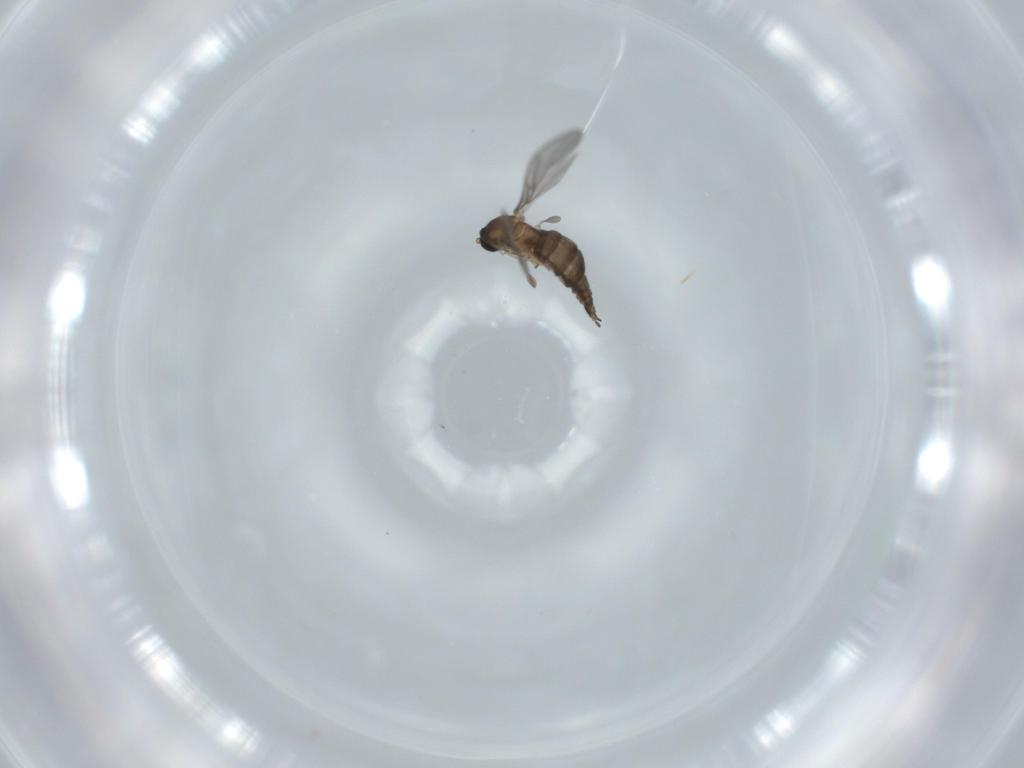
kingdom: Animalia
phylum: Arthropoda
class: Insecta
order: Diptera
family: Sciaridae
